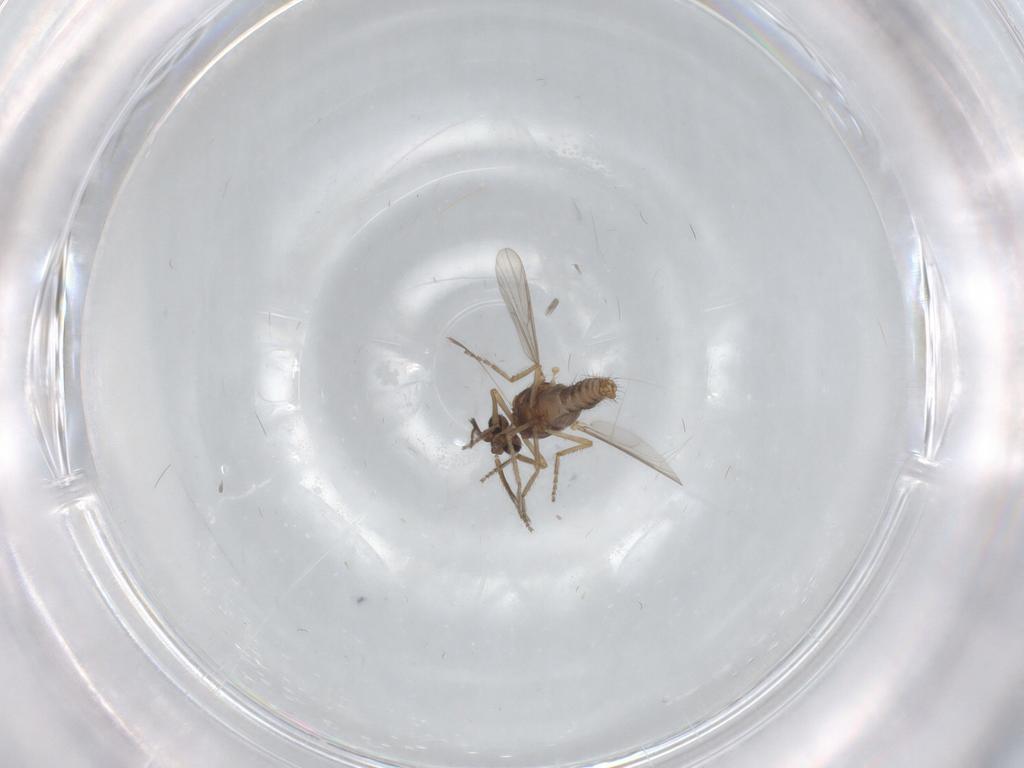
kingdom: Animalia
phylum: Arthropoda
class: Insecta
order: Diptera
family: Ceratopogonidae
